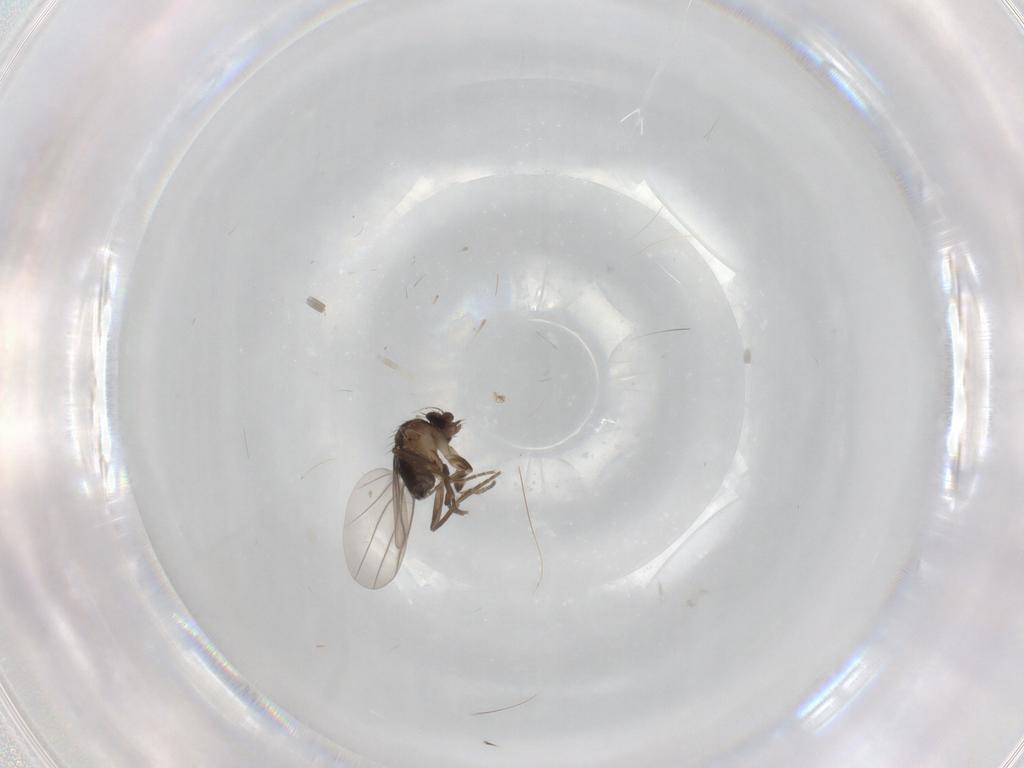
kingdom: Animalia
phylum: Arthropoda
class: Insecta
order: Diptera
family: Phoridae
